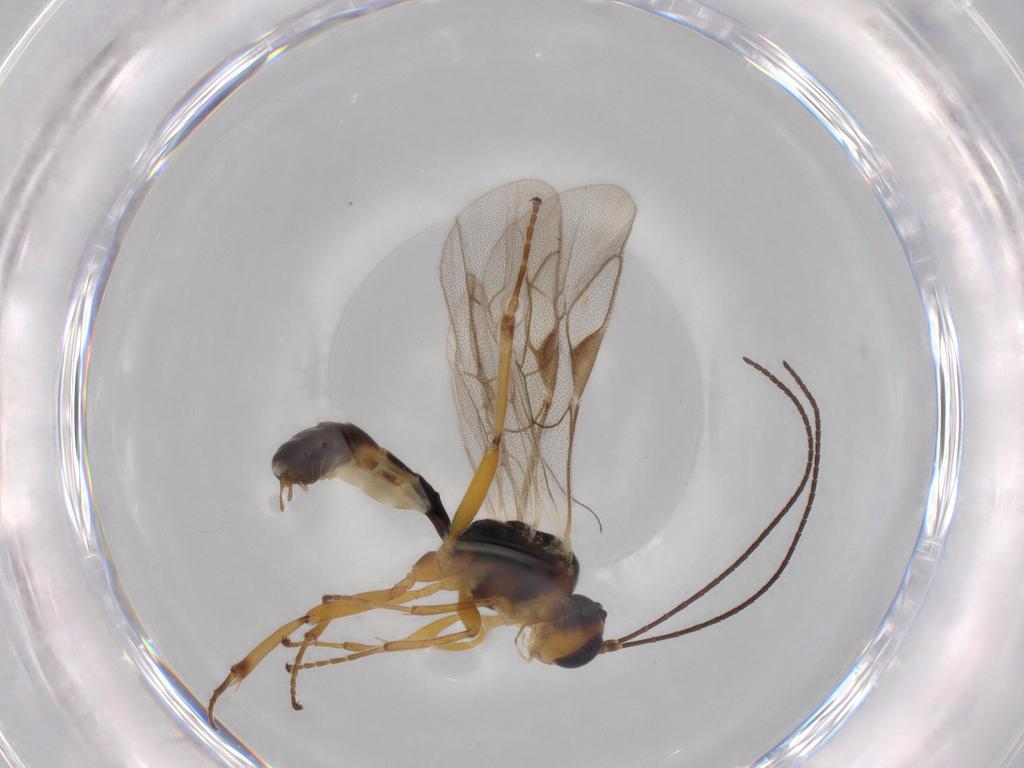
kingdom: Animalia
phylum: Arthropoda
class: Insecta
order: Hymenoptera
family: Ichneumonidae
